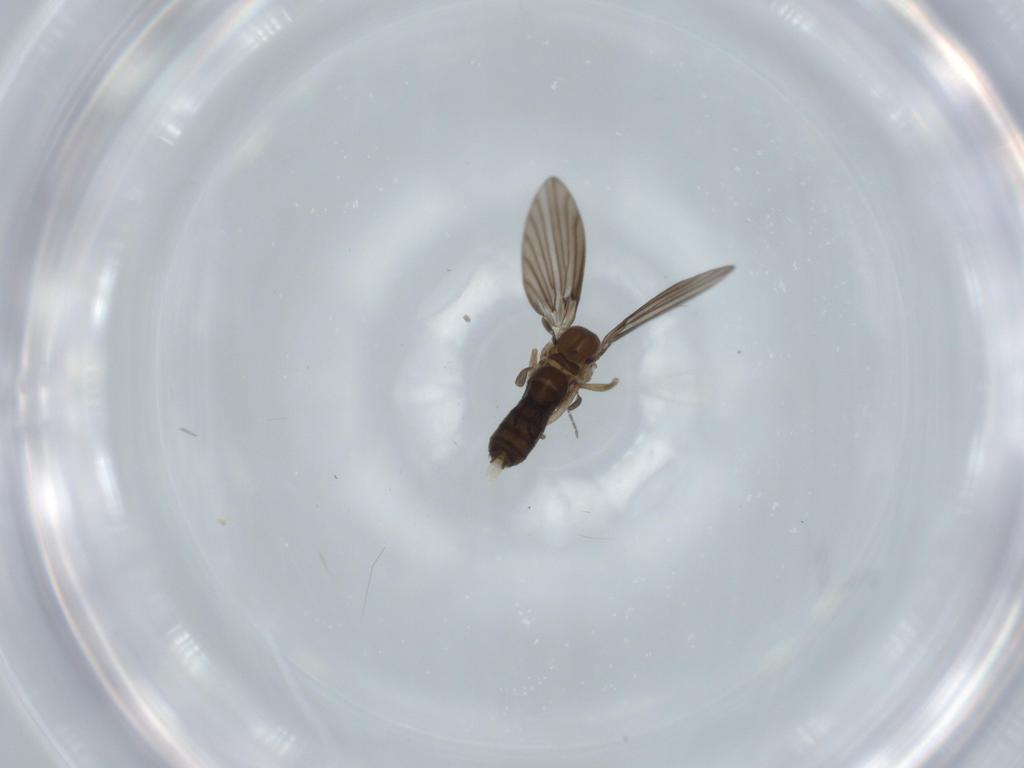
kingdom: Animalia
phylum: Arthropoda
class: Insecta
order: Diptera
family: Psychodidae
